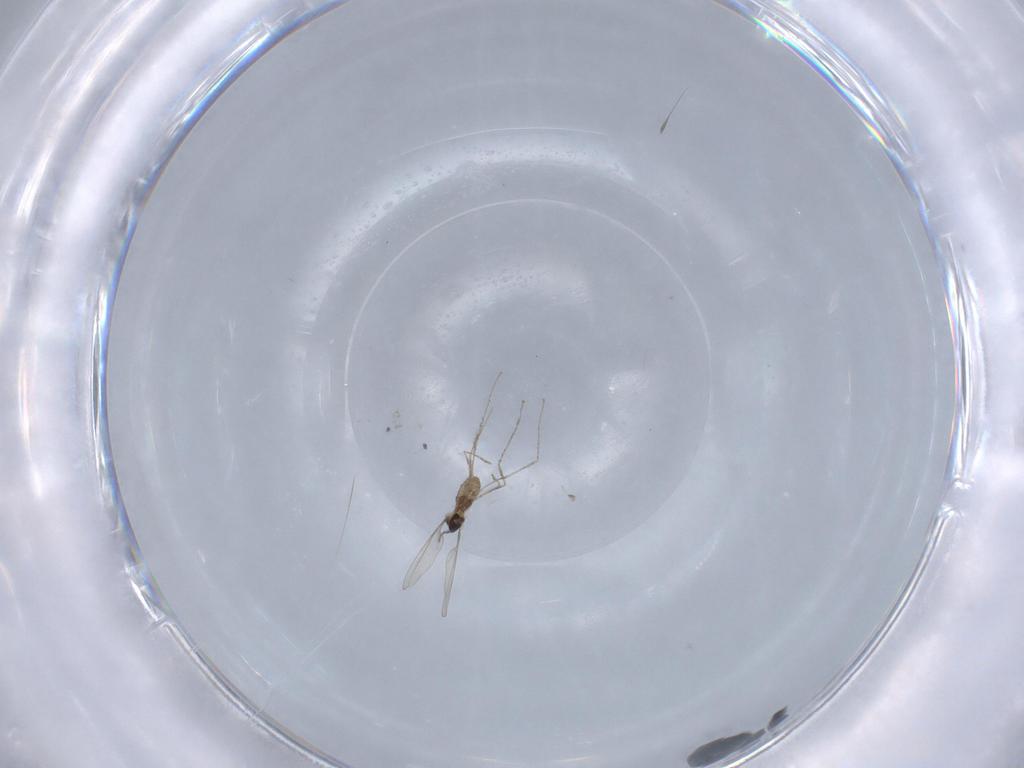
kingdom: Animalia
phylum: Arthropoda
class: Insecta
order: Diptera
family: Cecidomyiidae
